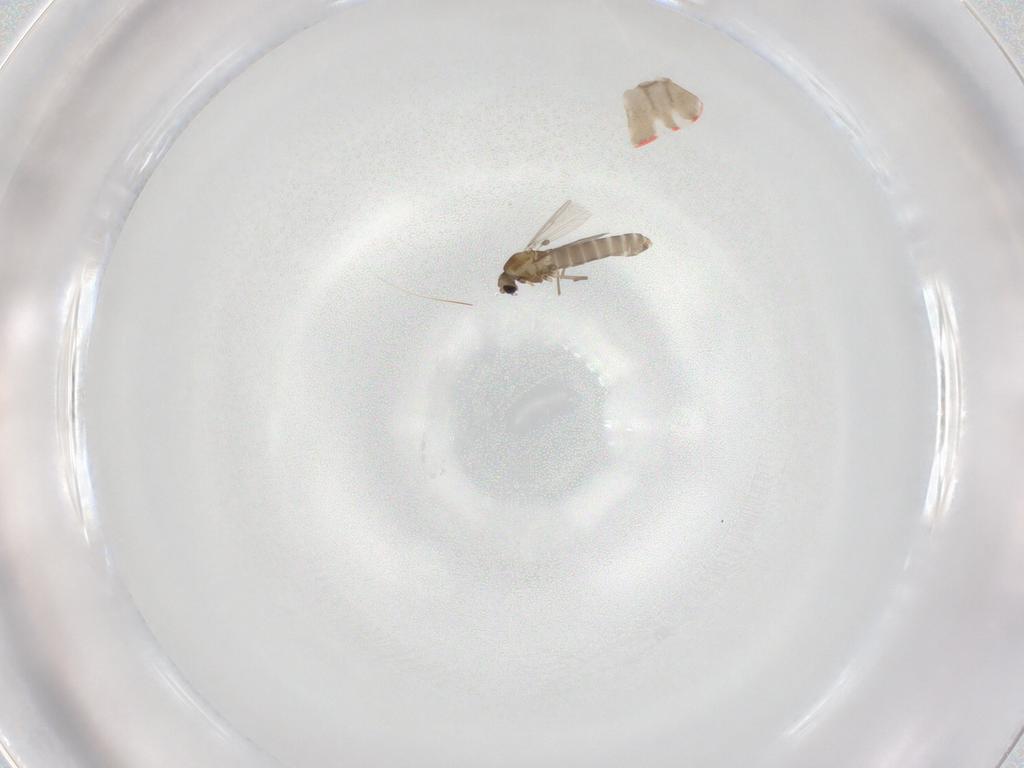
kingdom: Animalia
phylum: Arthropoda
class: Insecta
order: Diptera
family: Chironomidae
